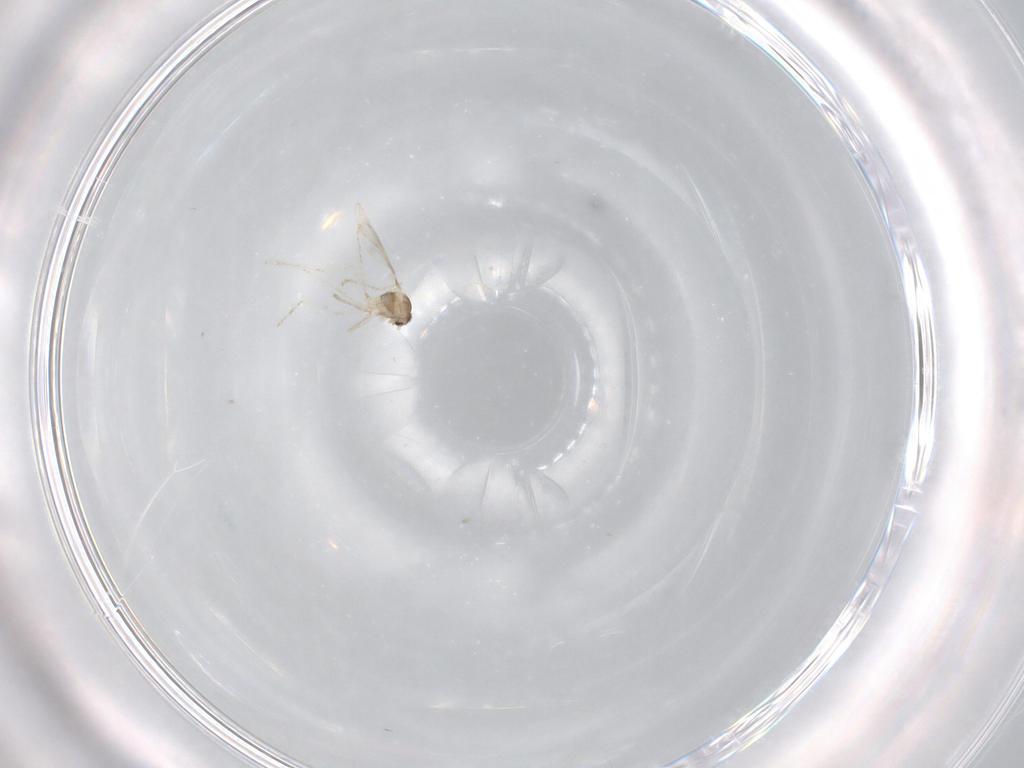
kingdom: Animalia
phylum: Arthropoda
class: Insecta
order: Diptera
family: Cecidomyiidae
